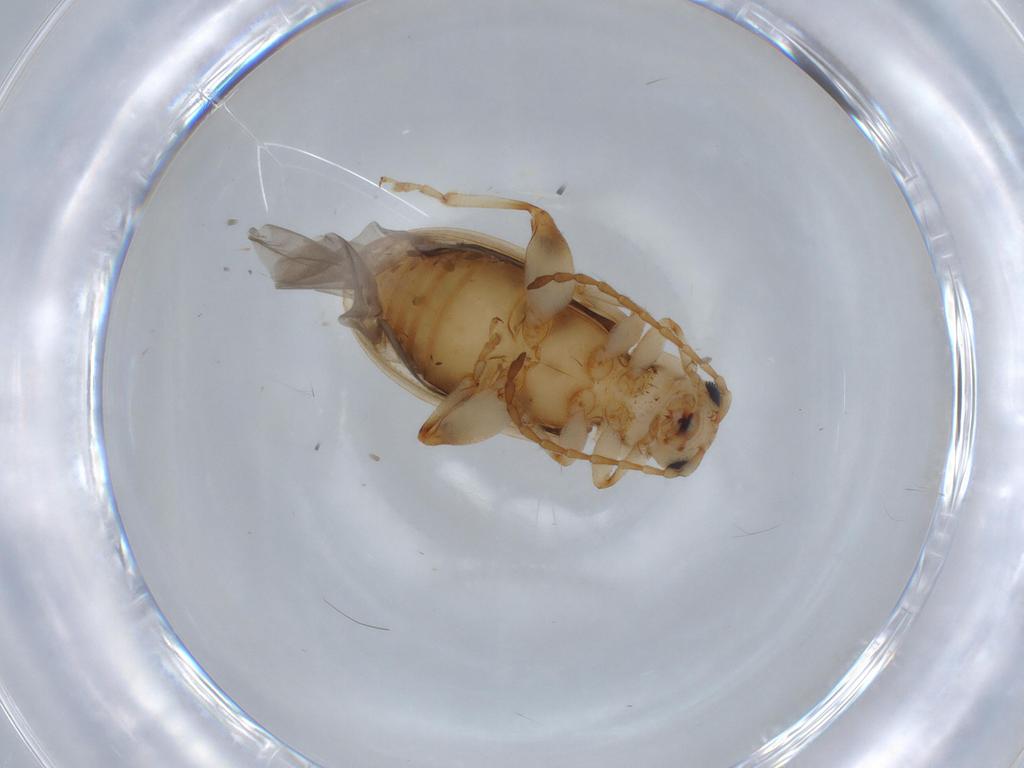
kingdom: Animalia
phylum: Arthropoda
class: Insecta
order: Coleoptera
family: Chrysomelidae
